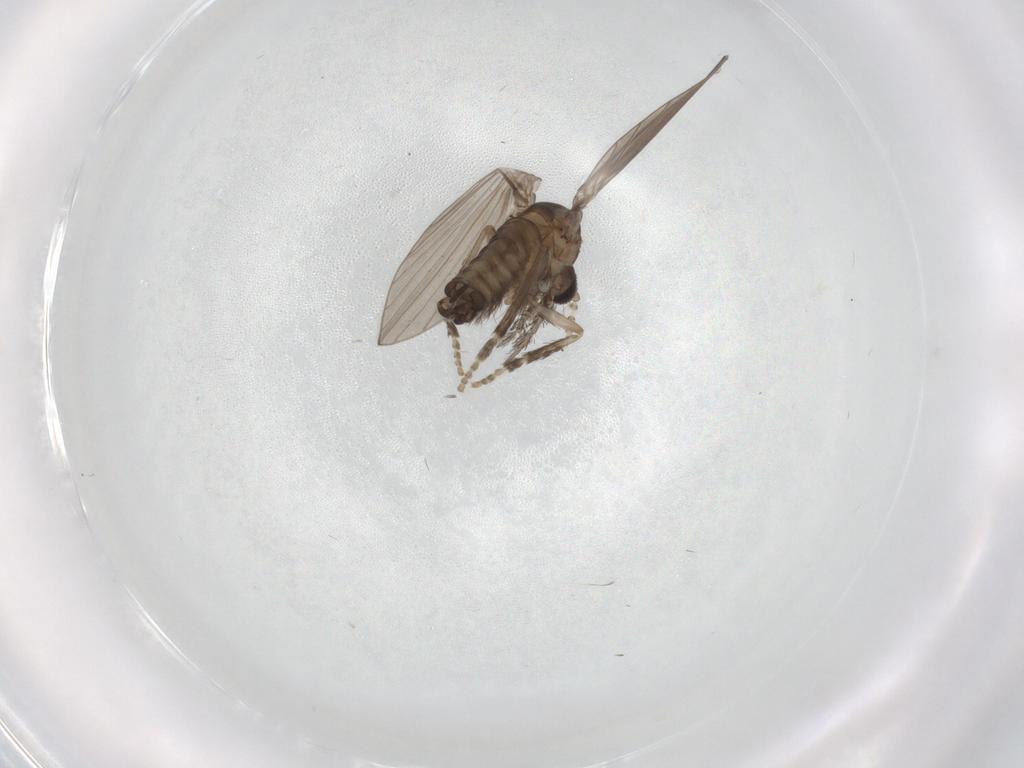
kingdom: Animalia
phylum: Arthropoda
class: Insecta
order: Diptera
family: Psychodidae
